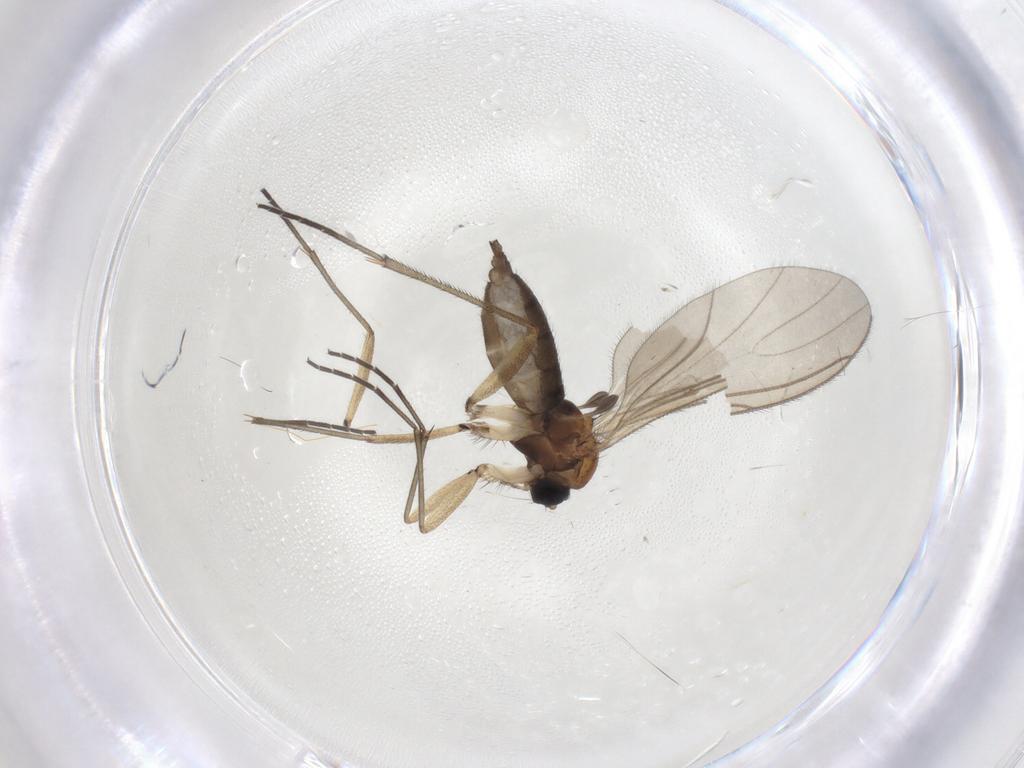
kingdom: Animalia
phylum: Arthropoda
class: Insecta
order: Diptera
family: Sciaridae
